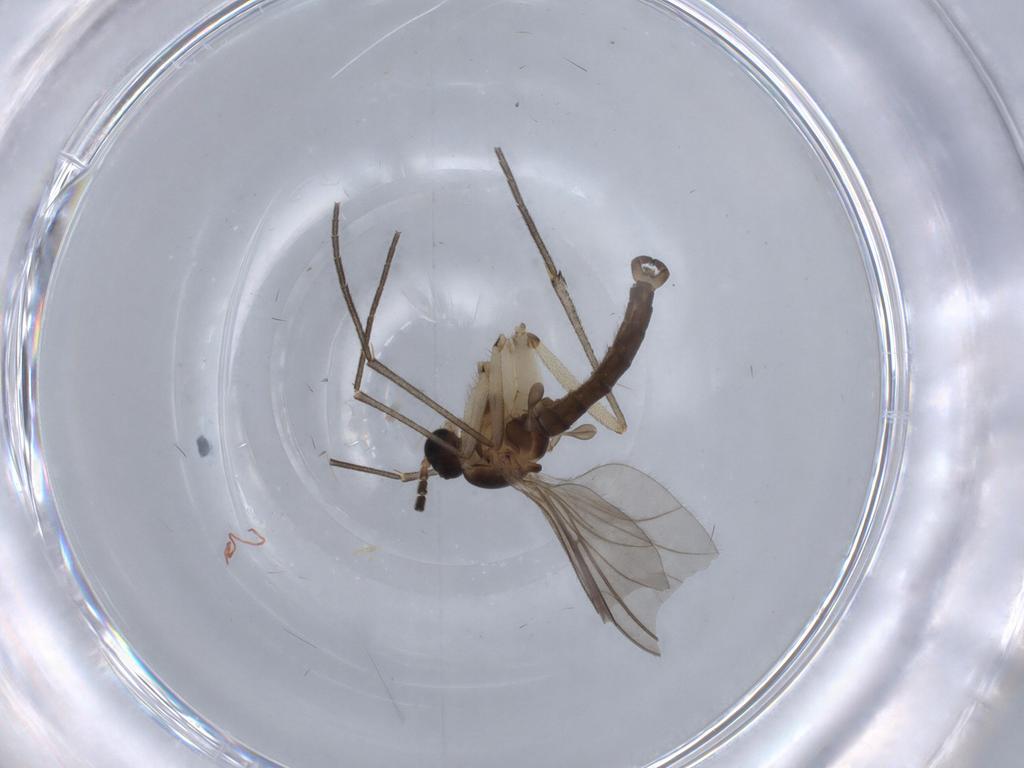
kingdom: Animalia
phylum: Arthropoda
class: Insecta
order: Diptera
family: Sciaridae
